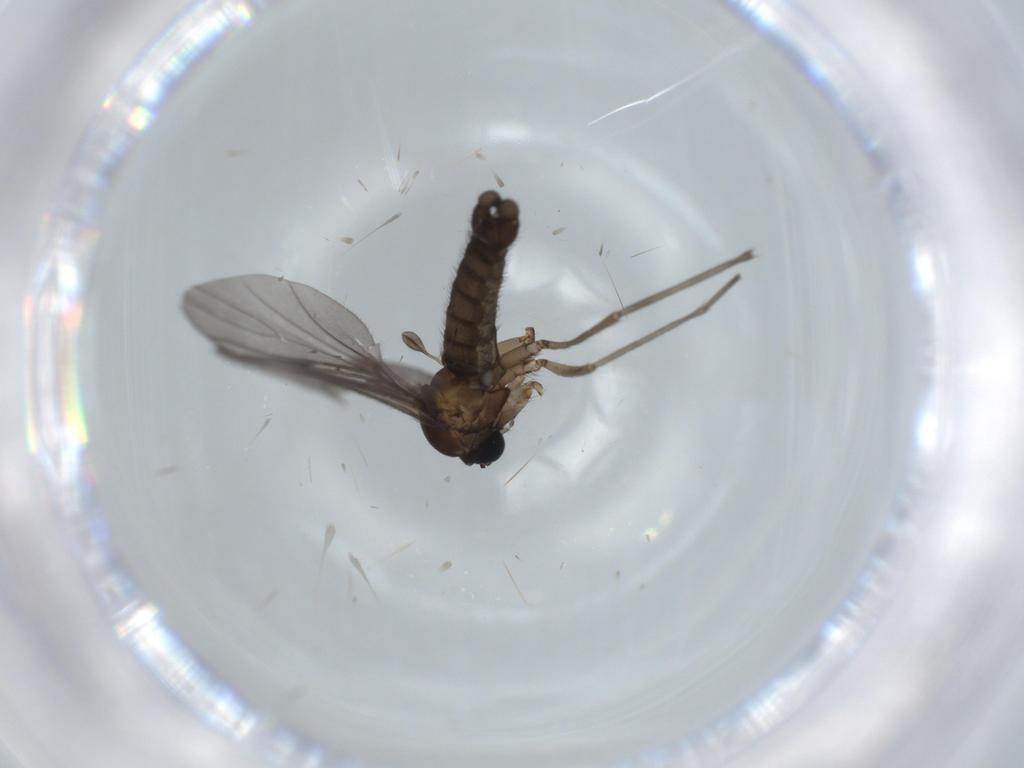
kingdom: Animalia
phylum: Arthropoda
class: Insecta
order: Diptera
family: Sciaridae
